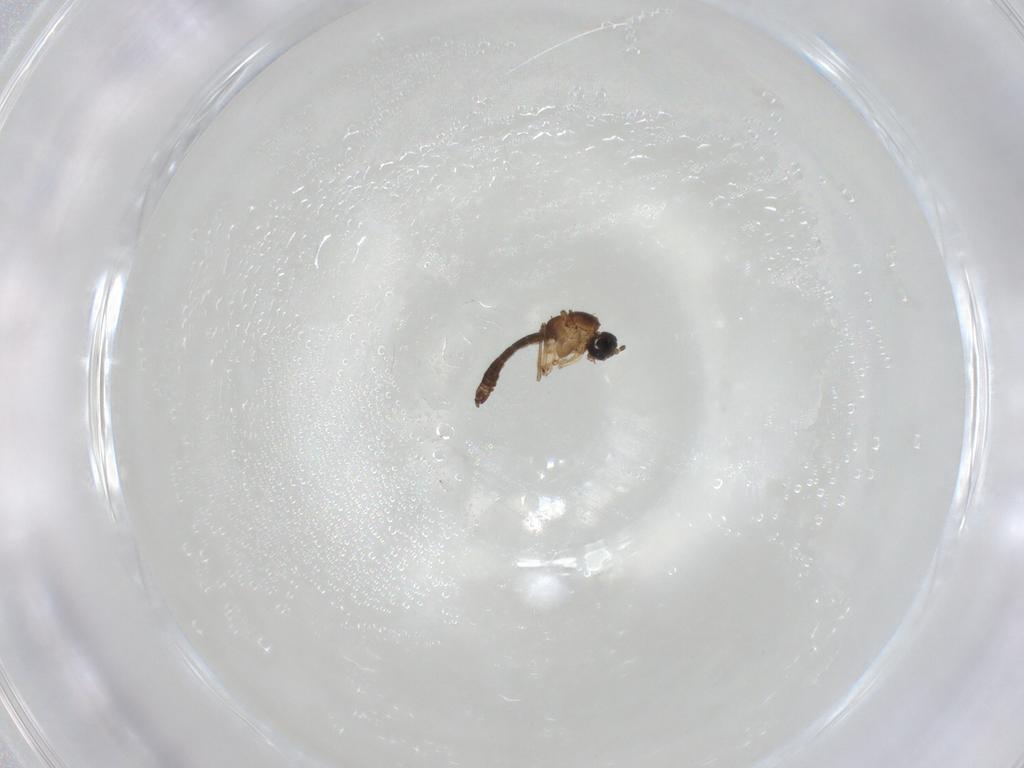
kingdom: Animalia
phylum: Arthropoda
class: Insecta
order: Diptera
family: Sciaridae
